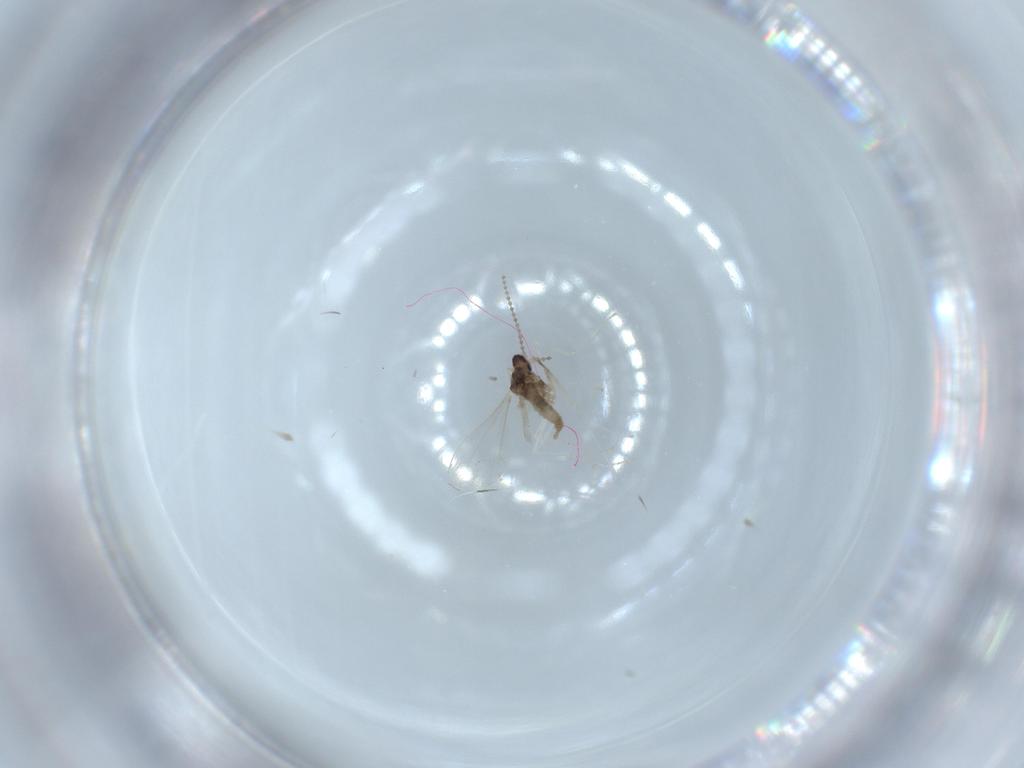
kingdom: Animalia
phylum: Arthropoda
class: Insecta
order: Diptera
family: Cecidomyiidae
